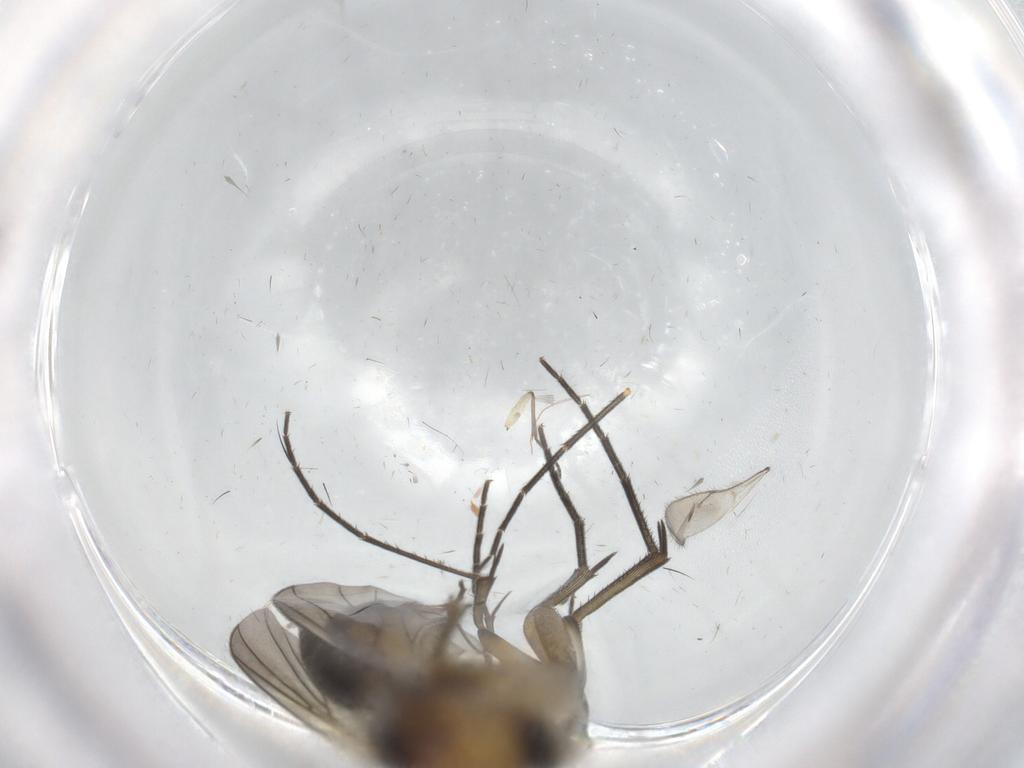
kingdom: Animalia
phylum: Arthropoda
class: Insecta
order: Diptera
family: Mycetophilidae
